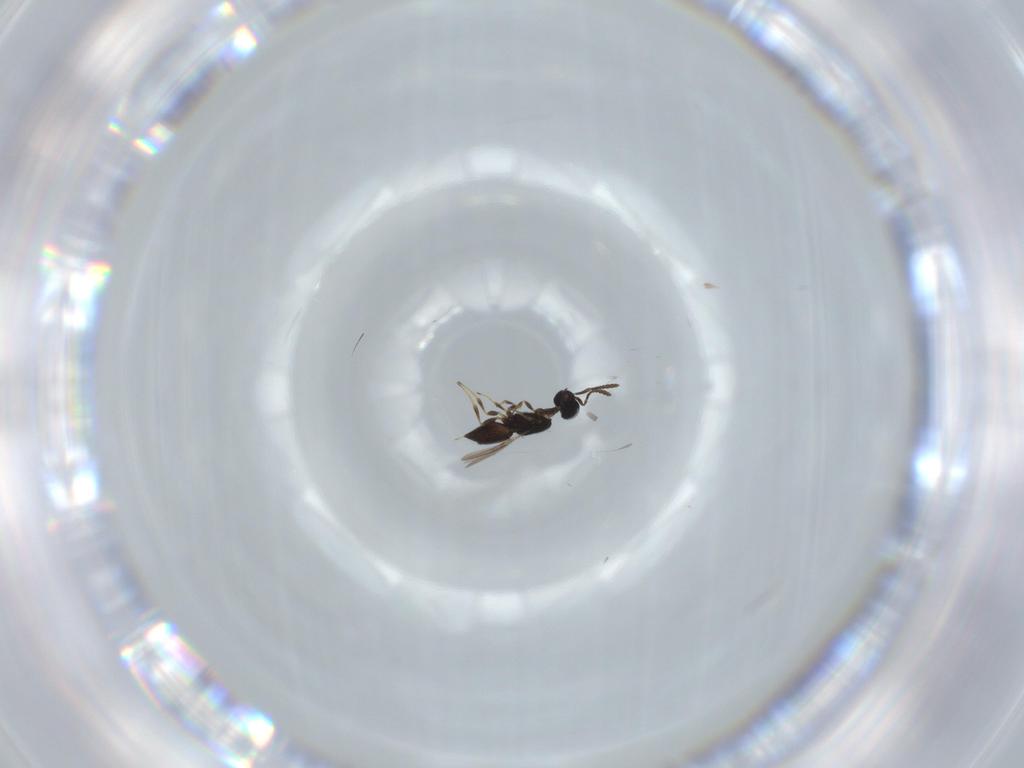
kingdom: Animalia
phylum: Arthropoda
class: Insecta
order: Hymenoptera
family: Scelionidae
